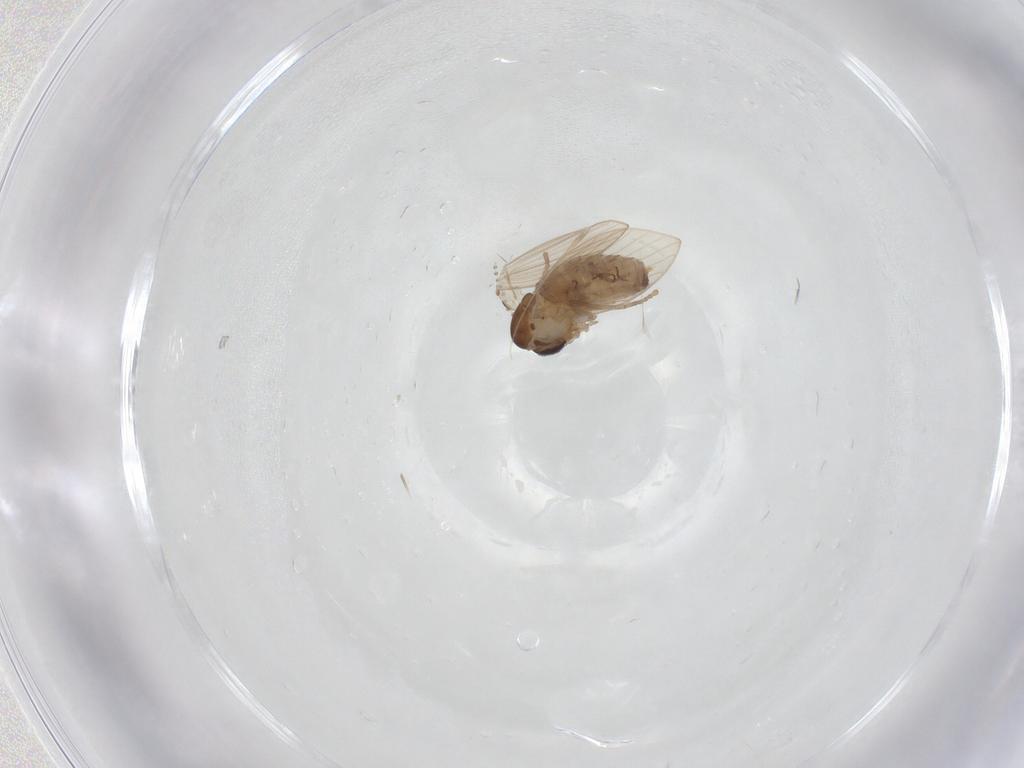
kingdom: Animalia
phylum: Arthropoda
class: Insecta
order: Diptera
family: Psychodidae
